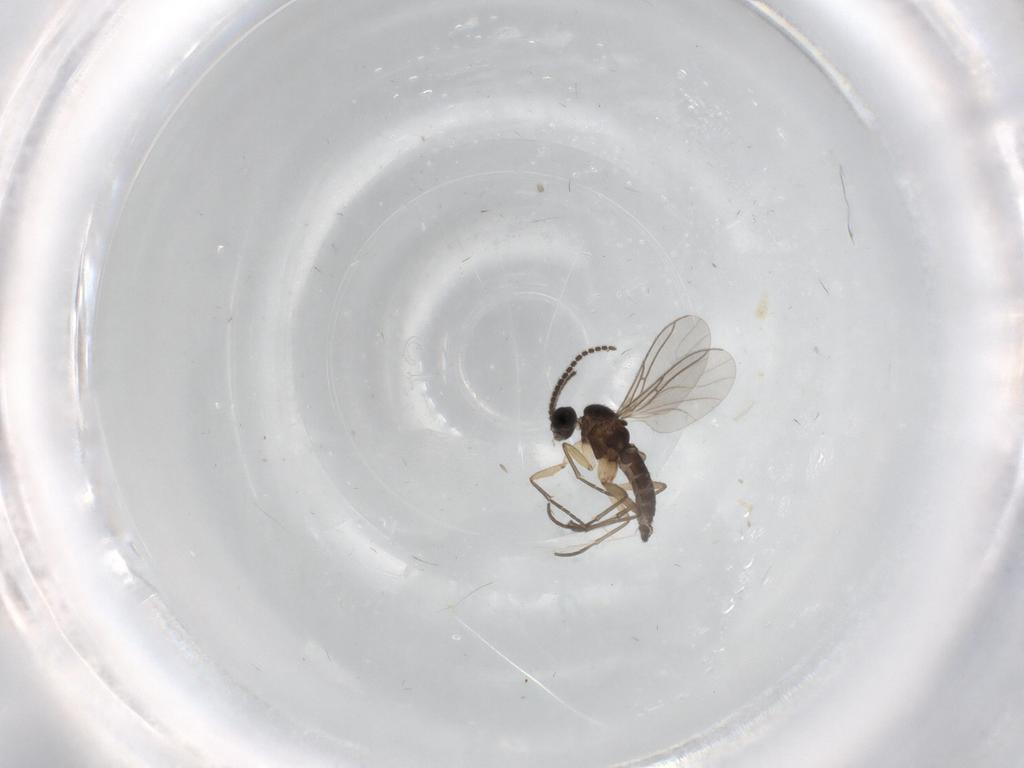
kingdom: Animalia
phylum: Arthropoda
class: Insecta
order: Diptera
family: Sciaridae
